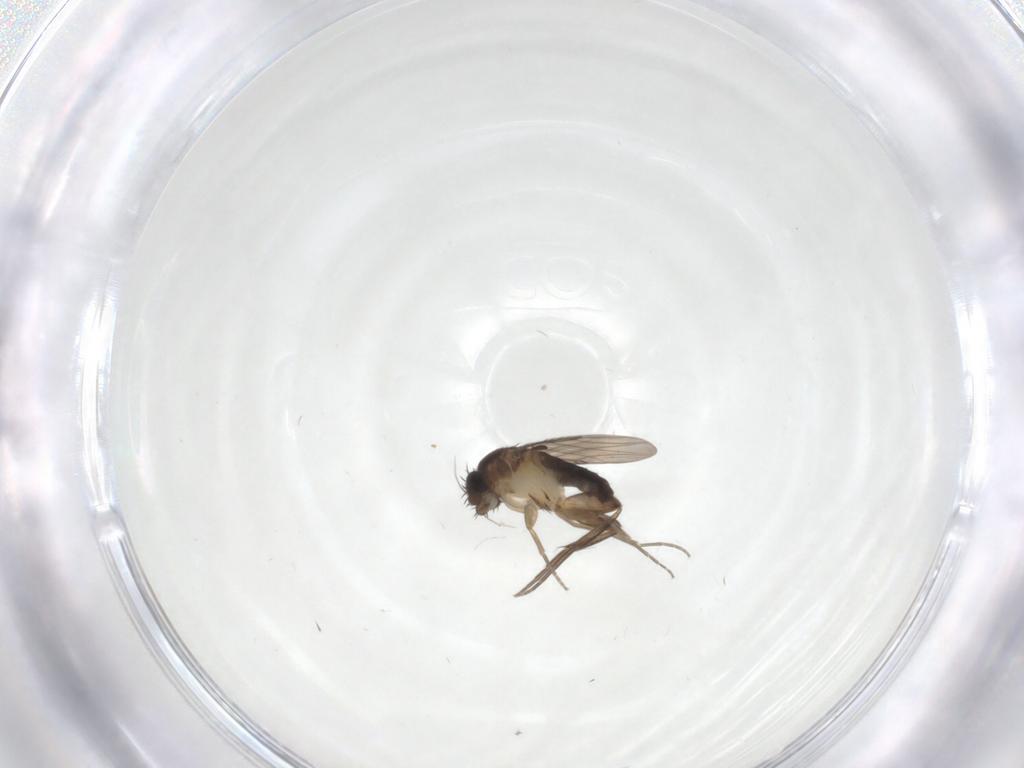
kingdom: Animalia
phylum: Arthropoda
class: Insecta
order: Diptera
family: Phoridae
